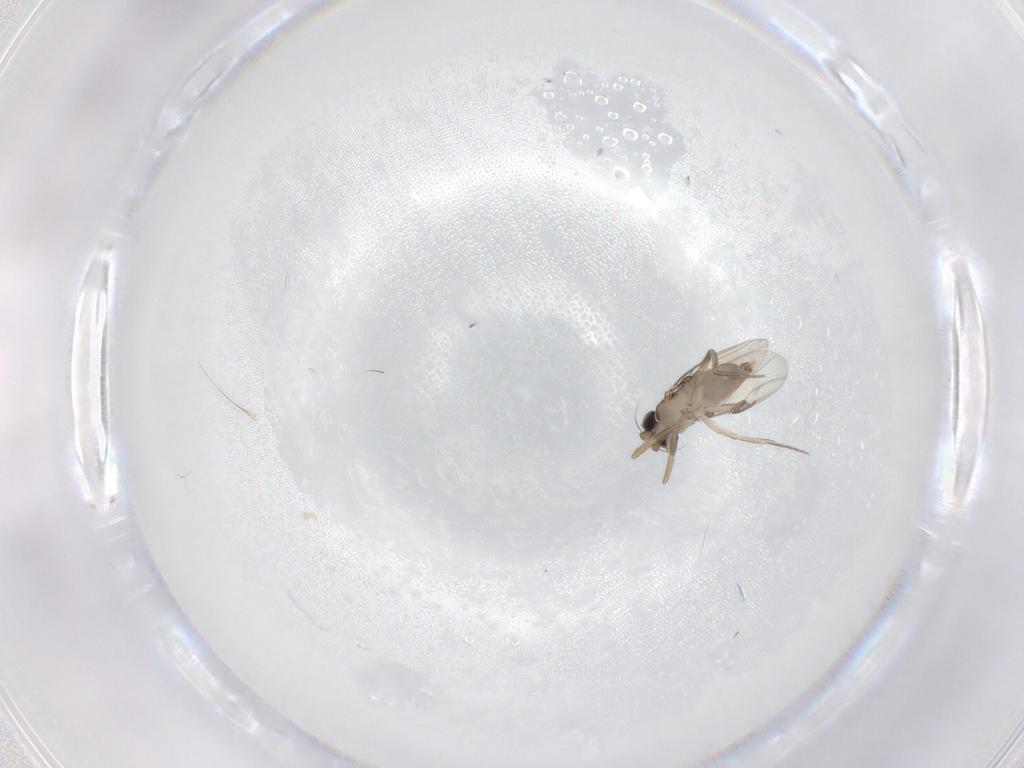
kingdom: Animalia
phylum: Arthropoda
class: Insecta
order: Diptera
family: Phoridae
